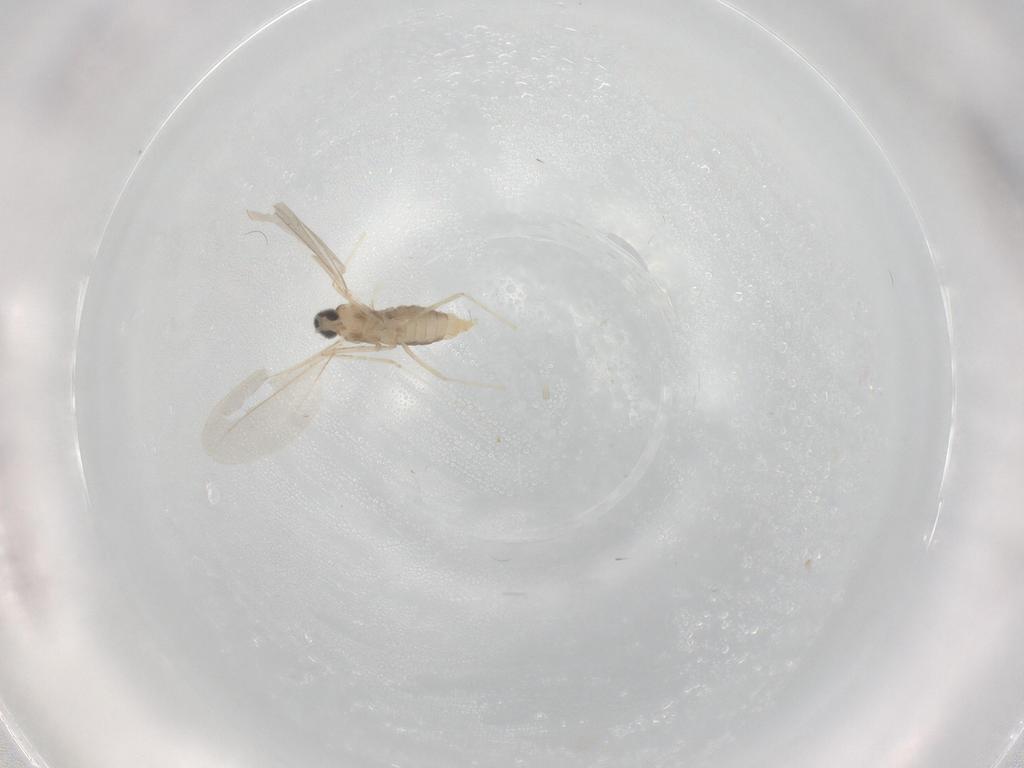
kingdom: Animalia
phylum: Arthropoda
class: Insecta
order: Diptera
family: Cecidomyiidae
